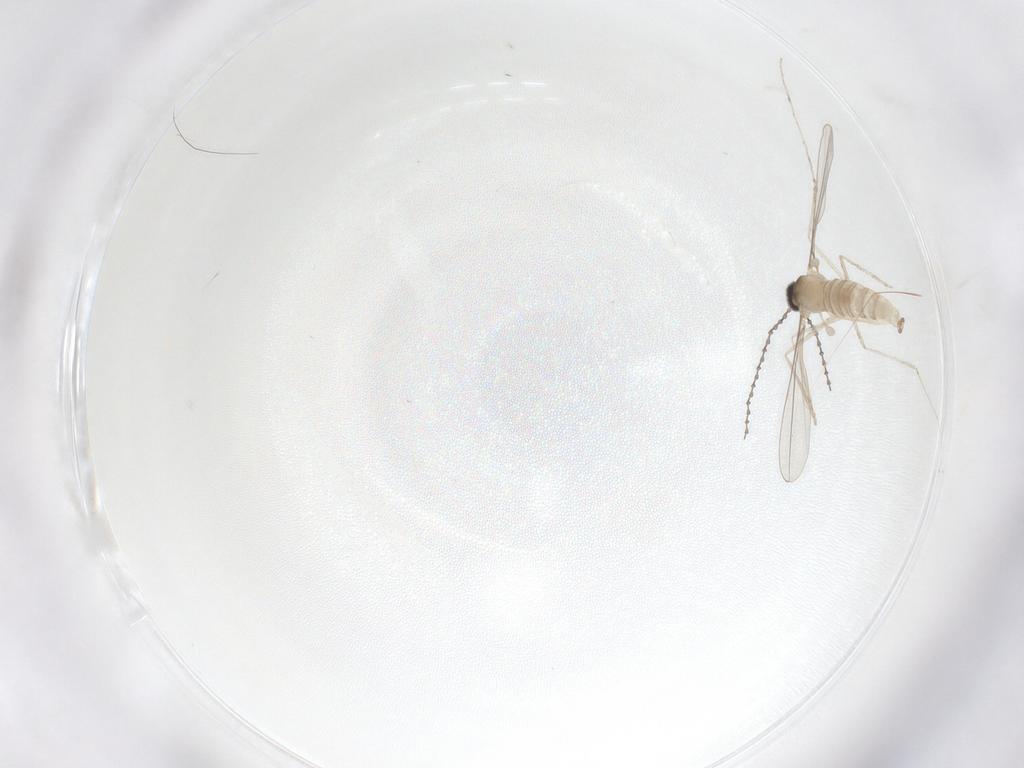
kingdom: Animalia
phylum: Arthropoda
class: Insecta
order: Diptera
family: Cecidomyiidae
